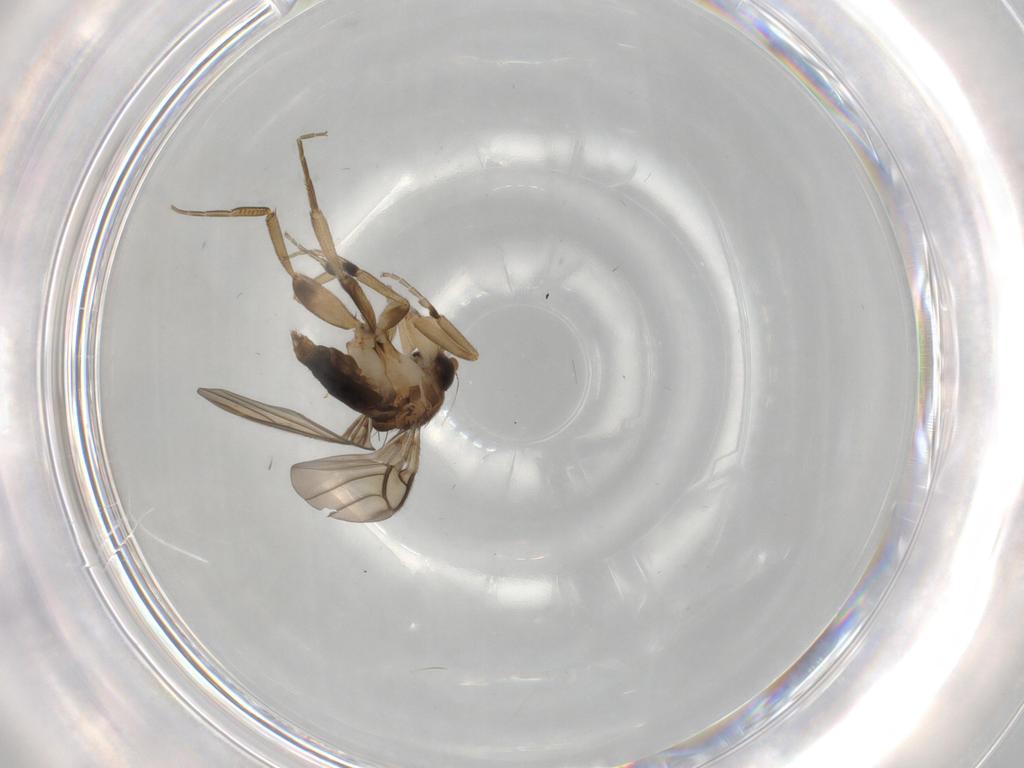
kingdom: Animalia
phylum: Arthropoda
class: Insecta
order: Diptera
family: Phoridae
